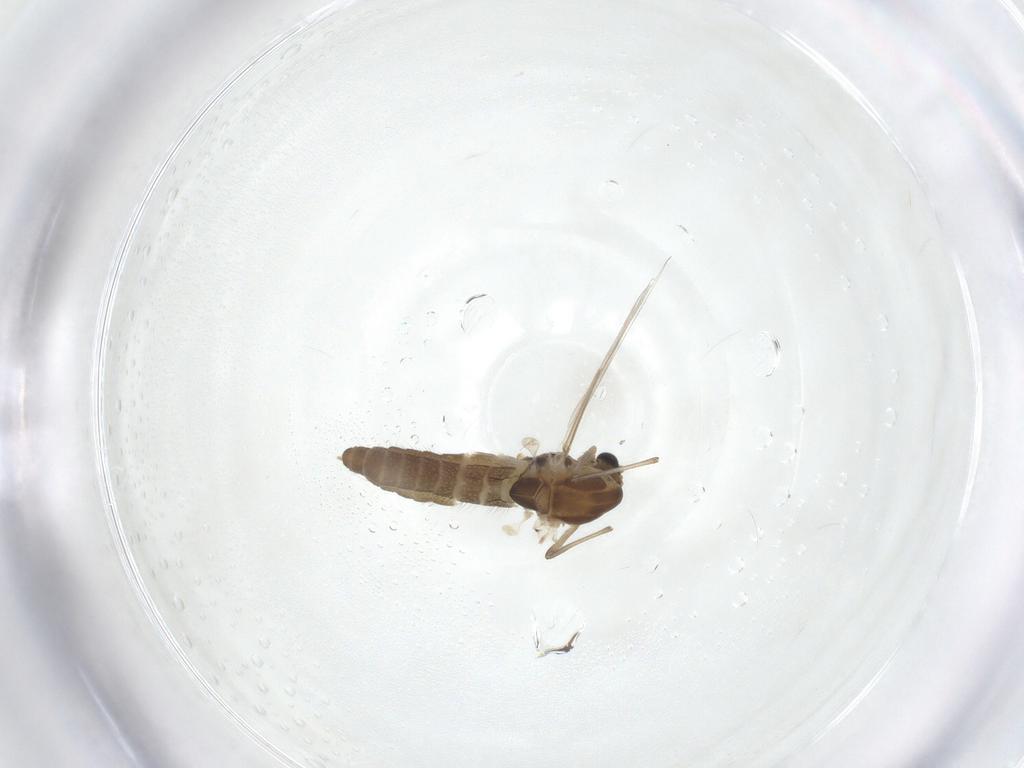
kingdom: Animalia
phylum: Arthropoda
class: Insecta
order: Diptera
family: Chironomidae
